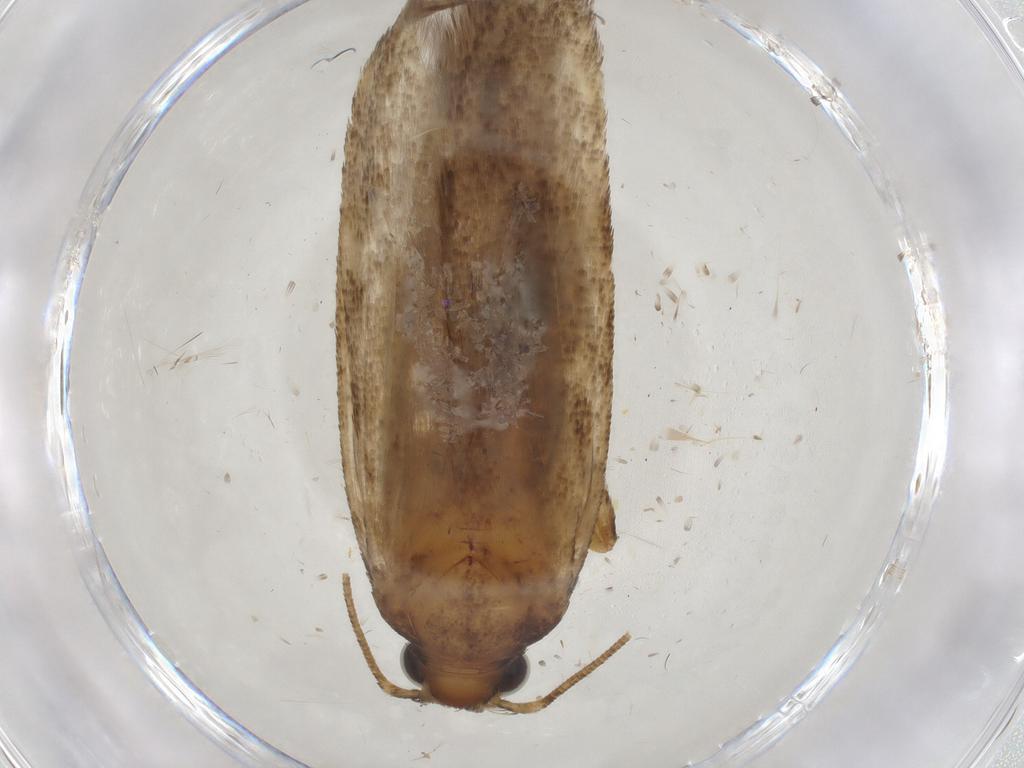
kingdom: Animalia
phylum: Arthropoda
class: Insecta
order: Lepidoptera
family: Gelechiidae
